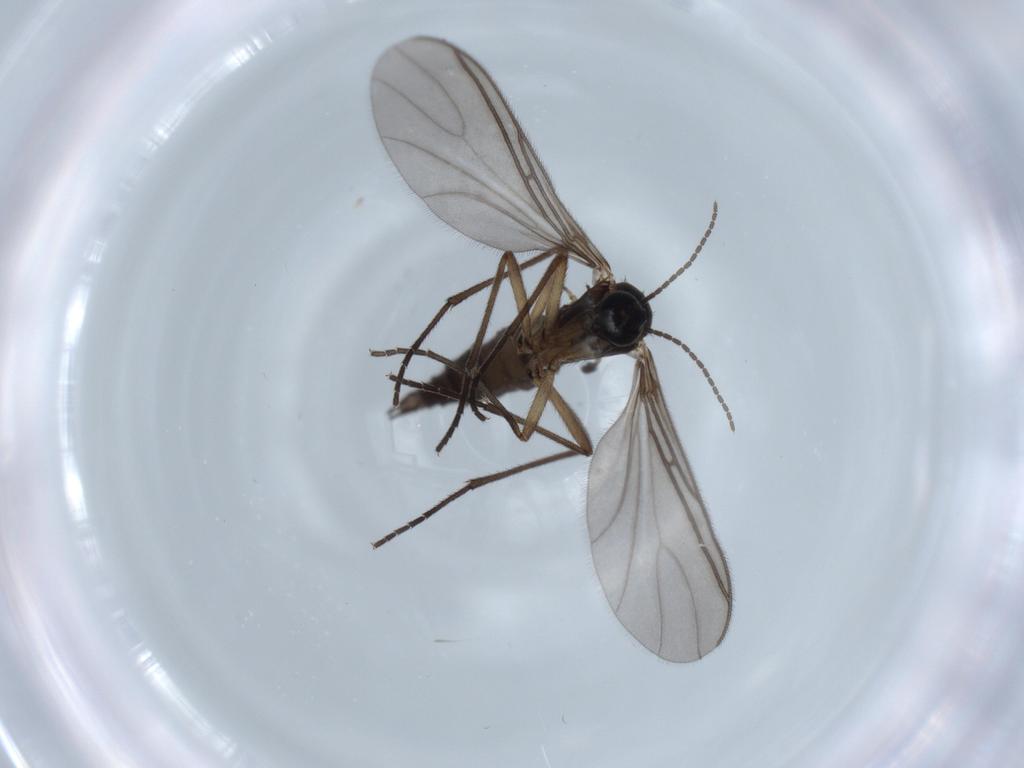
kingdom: Animalia
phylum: Arthropoda
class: Insecta
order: Diptera
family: Sciaridae
